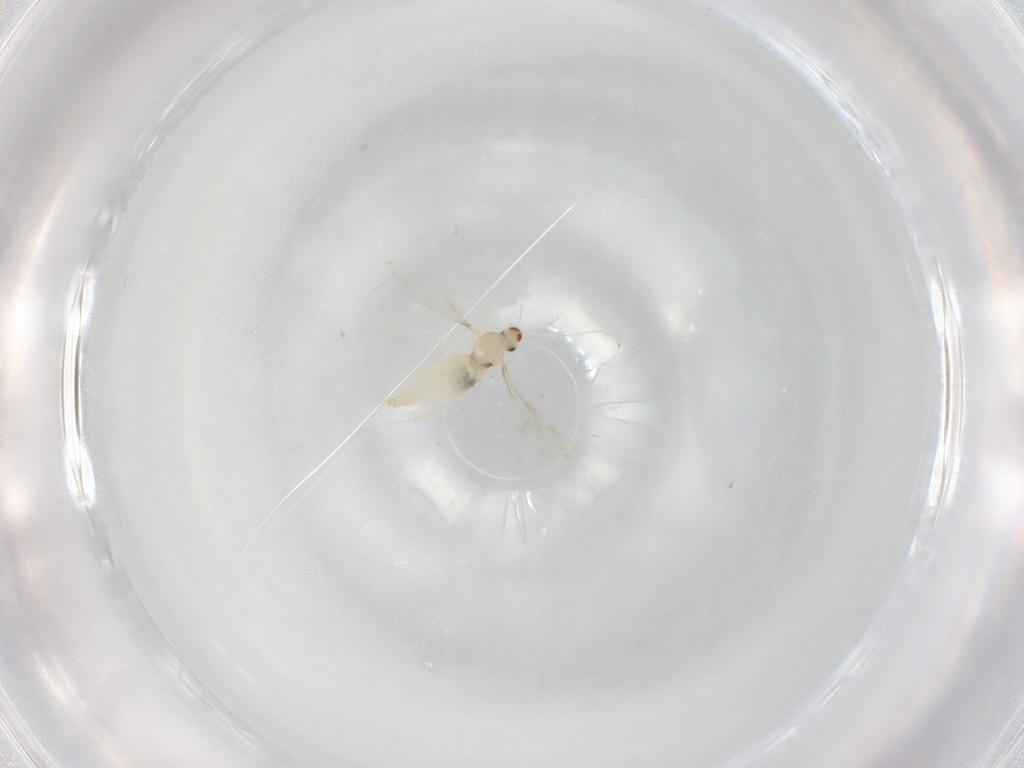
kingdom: Animalia
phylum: Arthropoda
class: Insecta
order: Diptera
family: Cecidomyiidae
